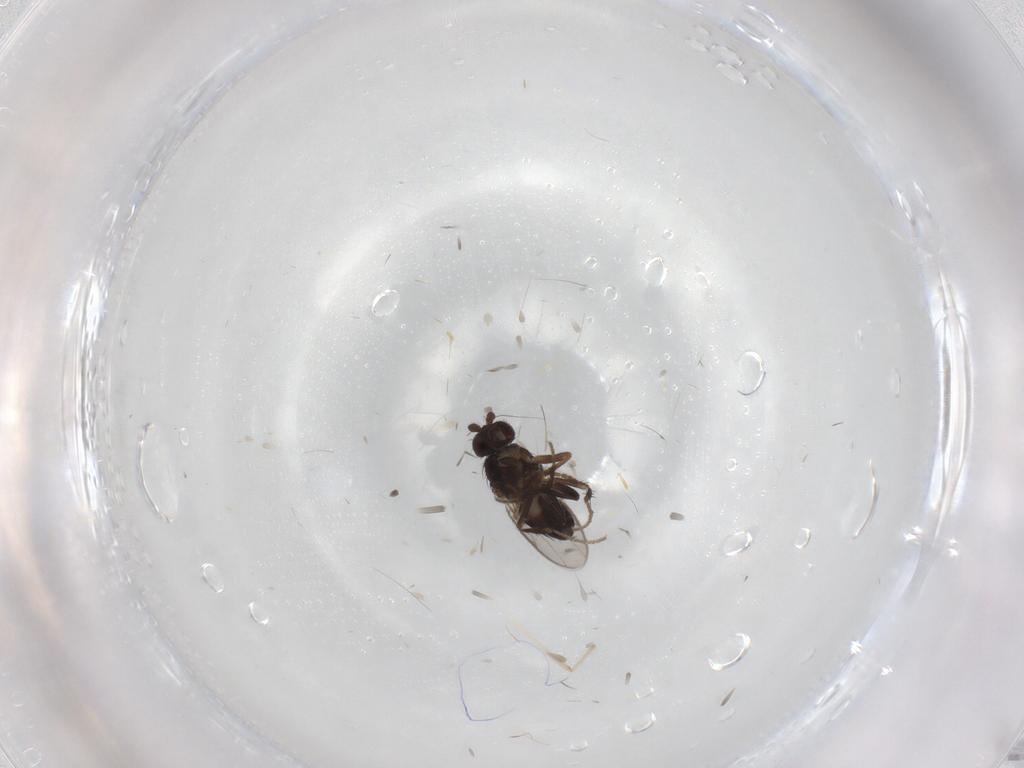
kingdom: Animalia
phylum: Arthropoda
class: Insecta
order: Diptera
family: Sphaeroceridae
